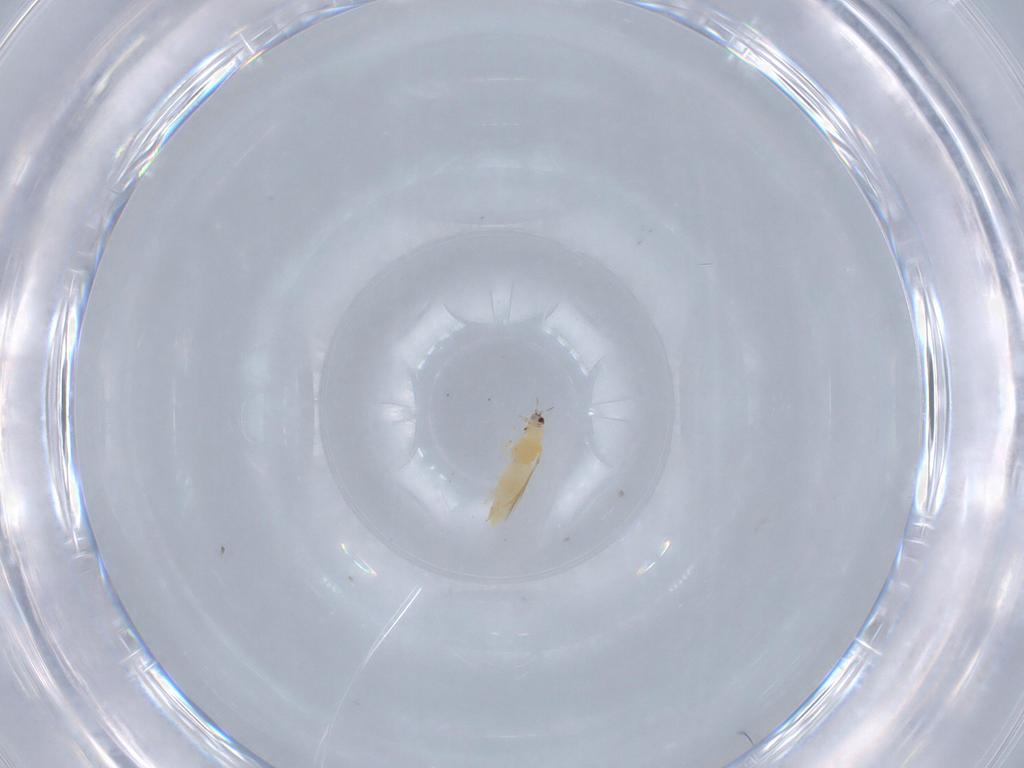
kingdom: Animalia
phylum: Arthropoda
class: Insecta
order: Thysanoptera
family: Thripidae
